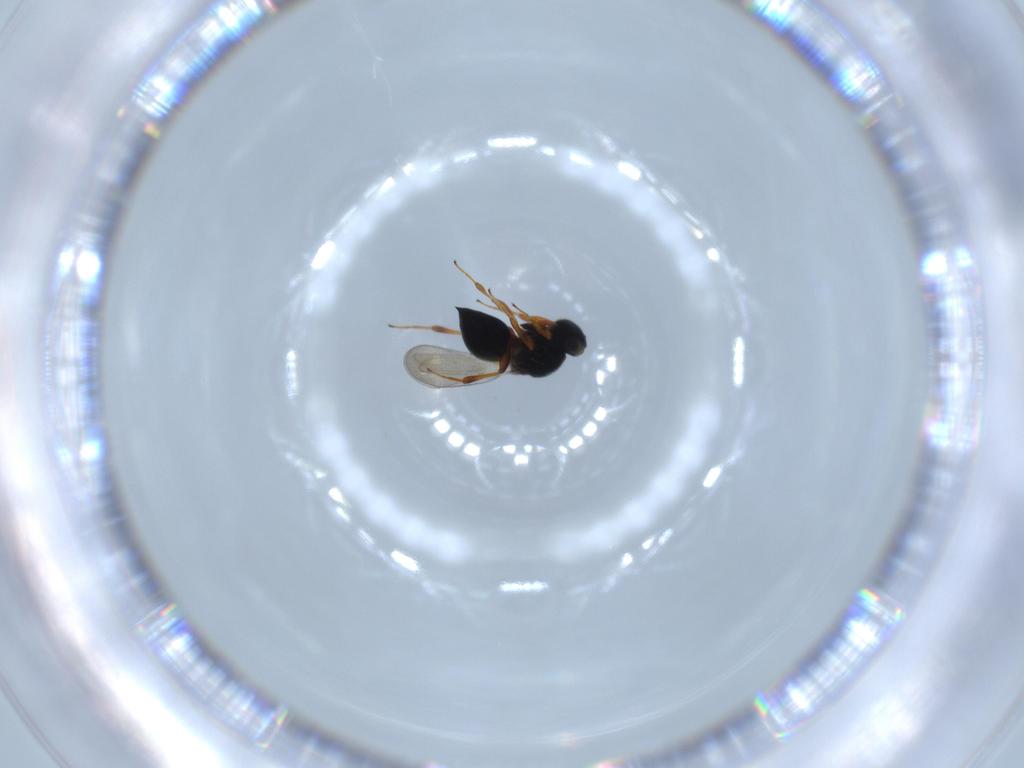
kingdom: Animalia
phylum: Arthropoda
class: Insecta
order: Hymenoptera
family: Platygastridae
